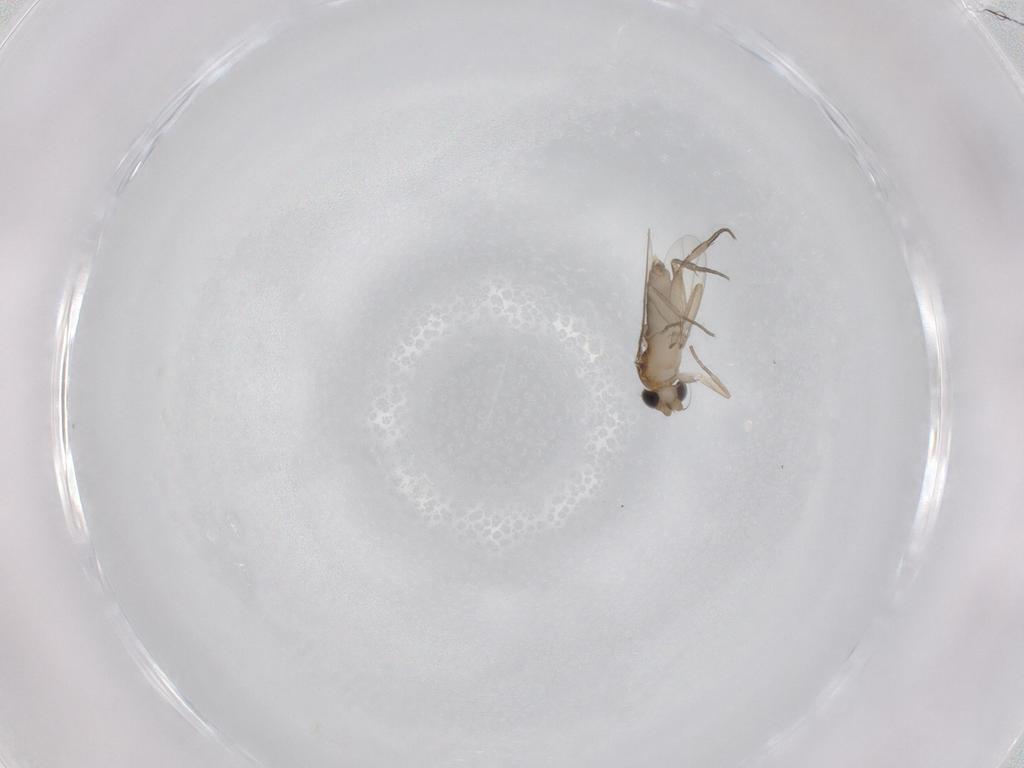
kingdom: Animalia
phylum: Arthropoda
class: Insecta
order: Diptera
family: Phoridae
